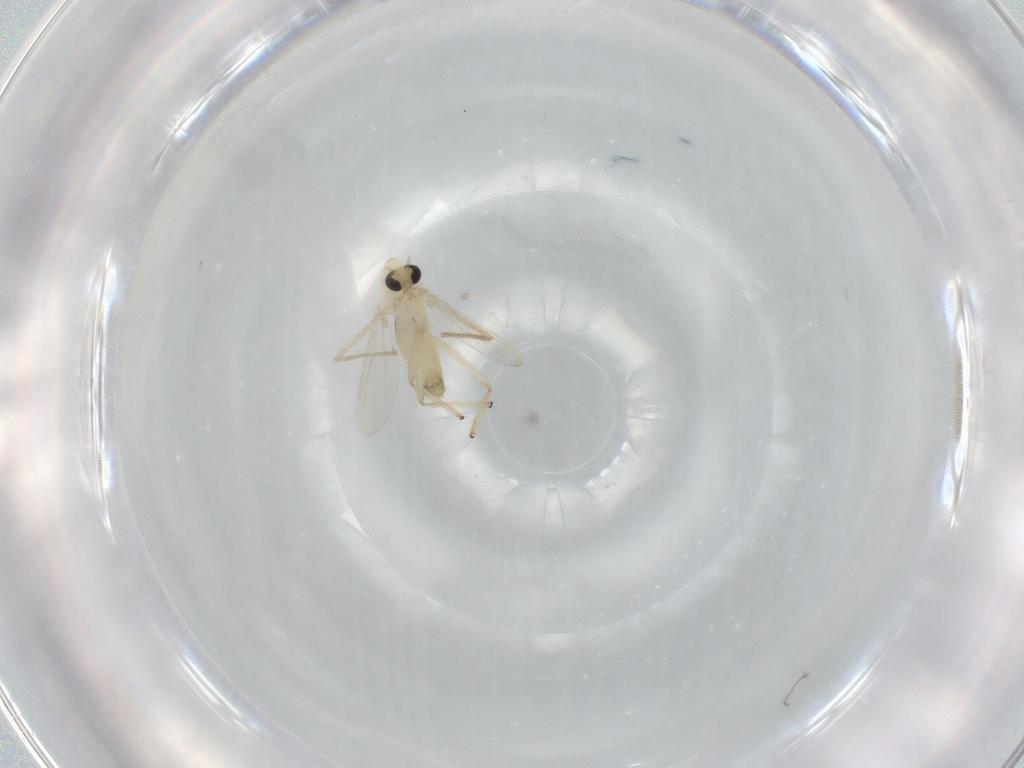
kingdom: Animalia
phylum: Arthropoda
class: Insecta
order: Diptera
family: Chironomidae
